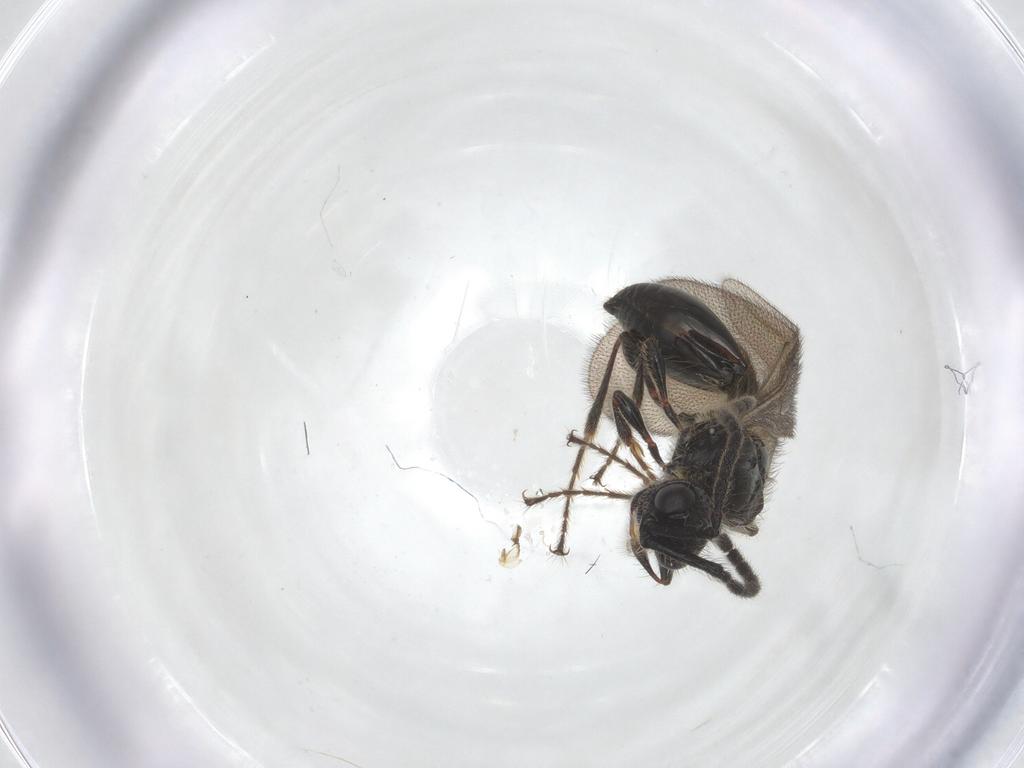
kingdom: Animalia
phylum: Arthropoda
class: Insecta
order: Hymenoptera
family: Diapriidae
